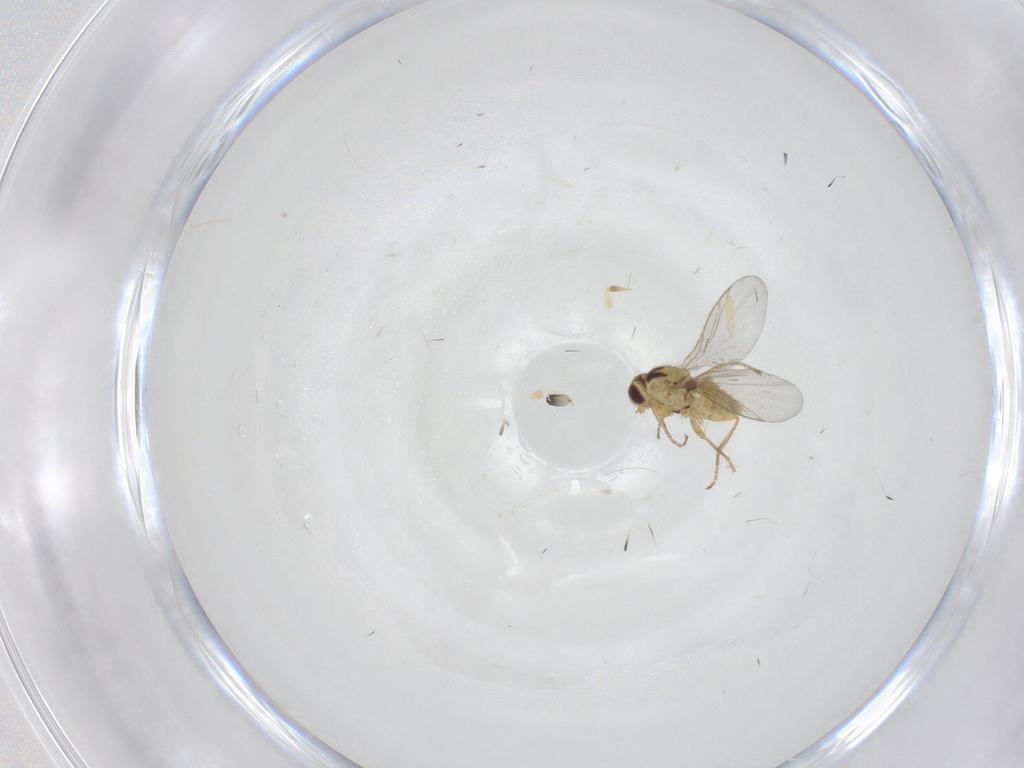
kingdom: Animalia
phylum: Arthropoda
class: Insecta
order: Diptera
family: Agromyzidae
